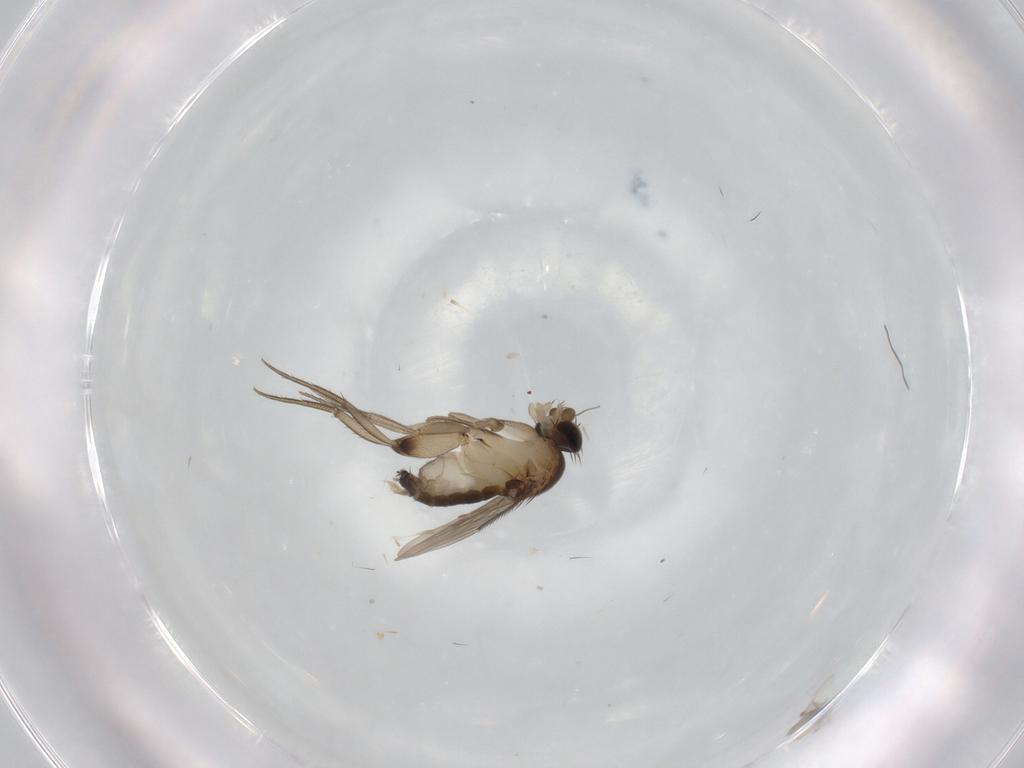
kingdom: Animalia
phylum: Arthropoda
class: Insecta
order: Diptera
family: Phoridae
